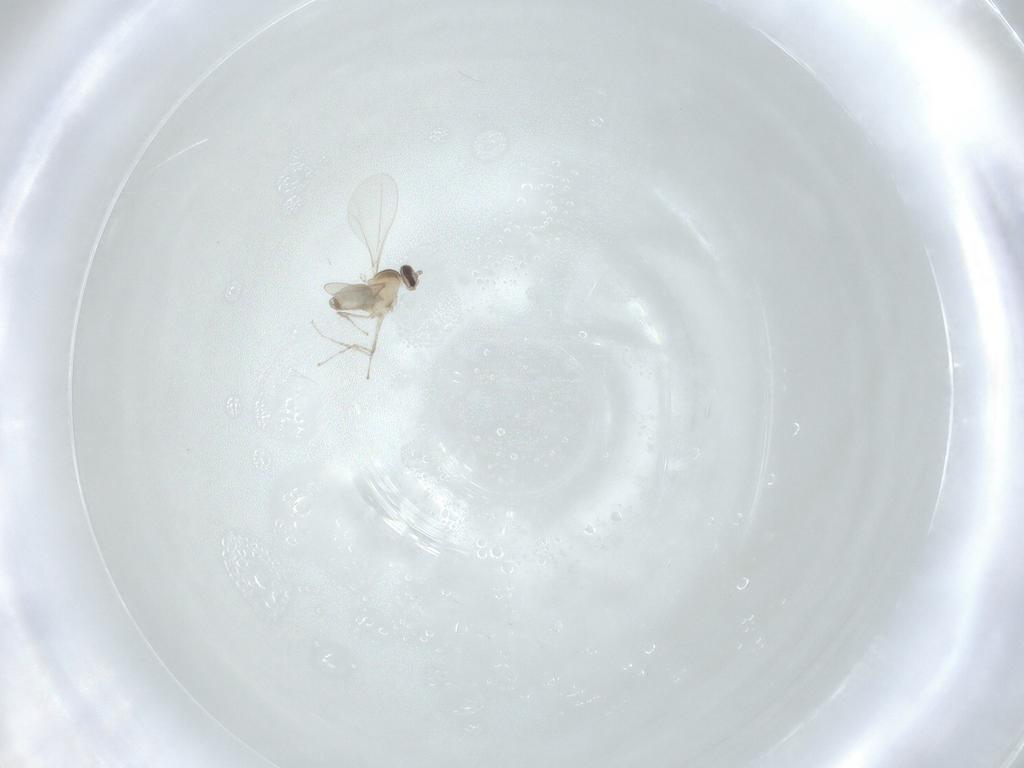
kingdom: Animalia
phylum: Arthropoda
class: Insecta
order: Diptera
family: Cecidomyiidae
